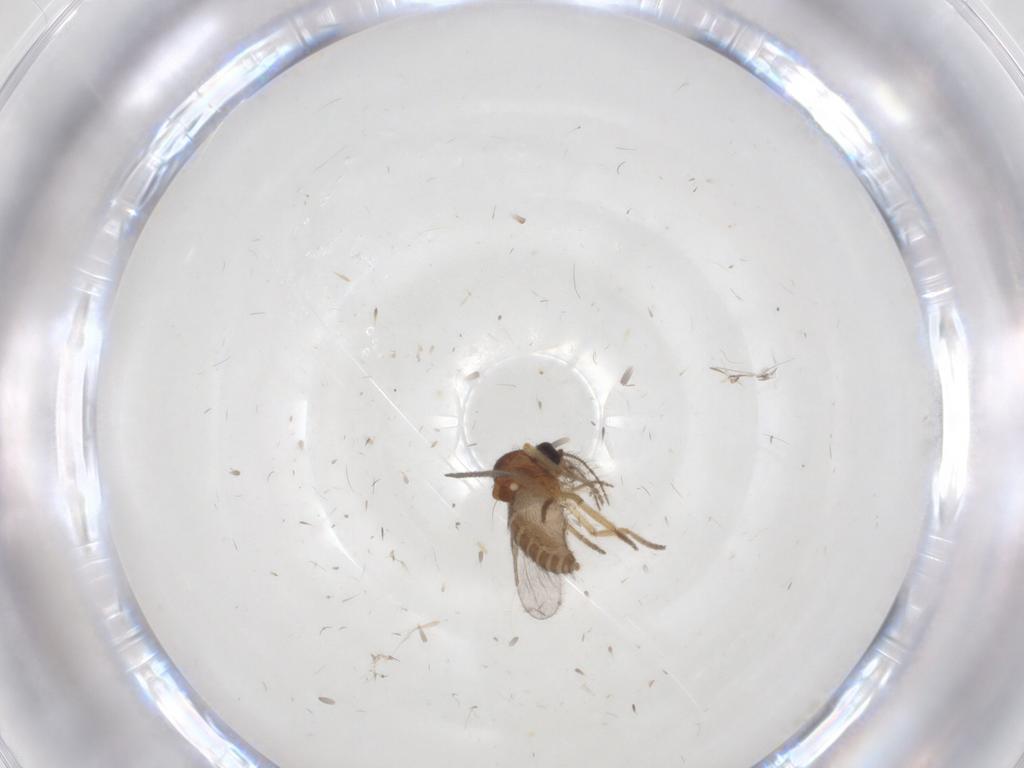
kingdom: Animalia
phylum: Arthropoda
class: Insecta
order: Diptera
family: Ceratopogonidae
